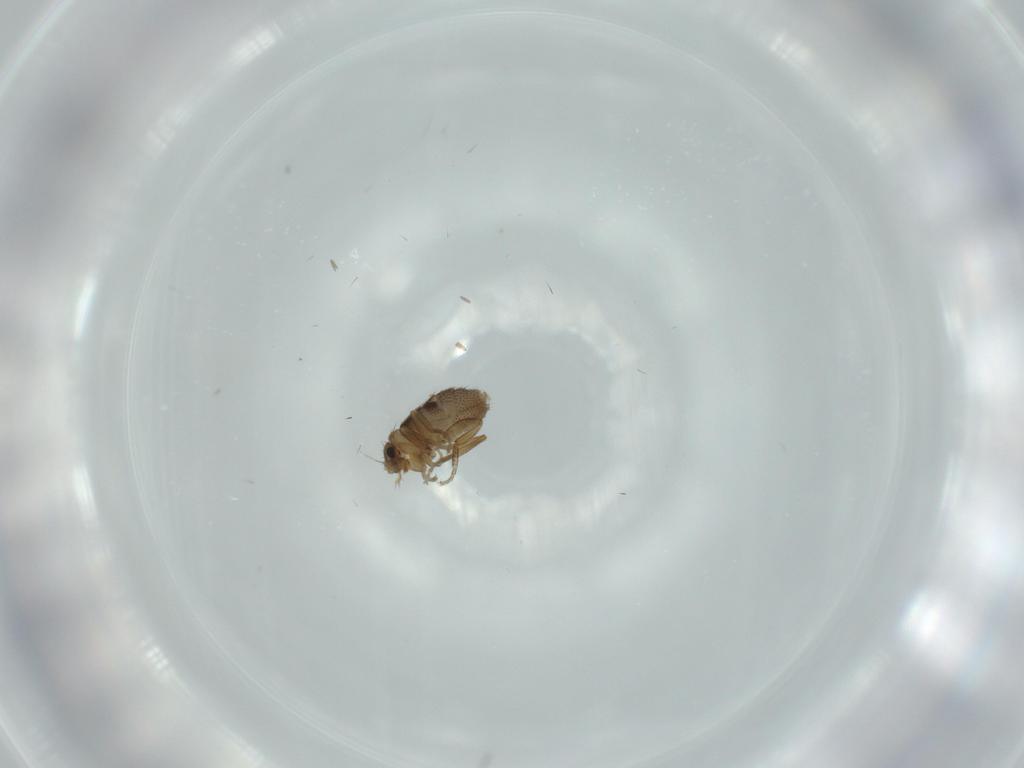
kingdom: Animalia
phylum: Arthropoda
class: Insecta
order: Diptera
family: Phoridae
